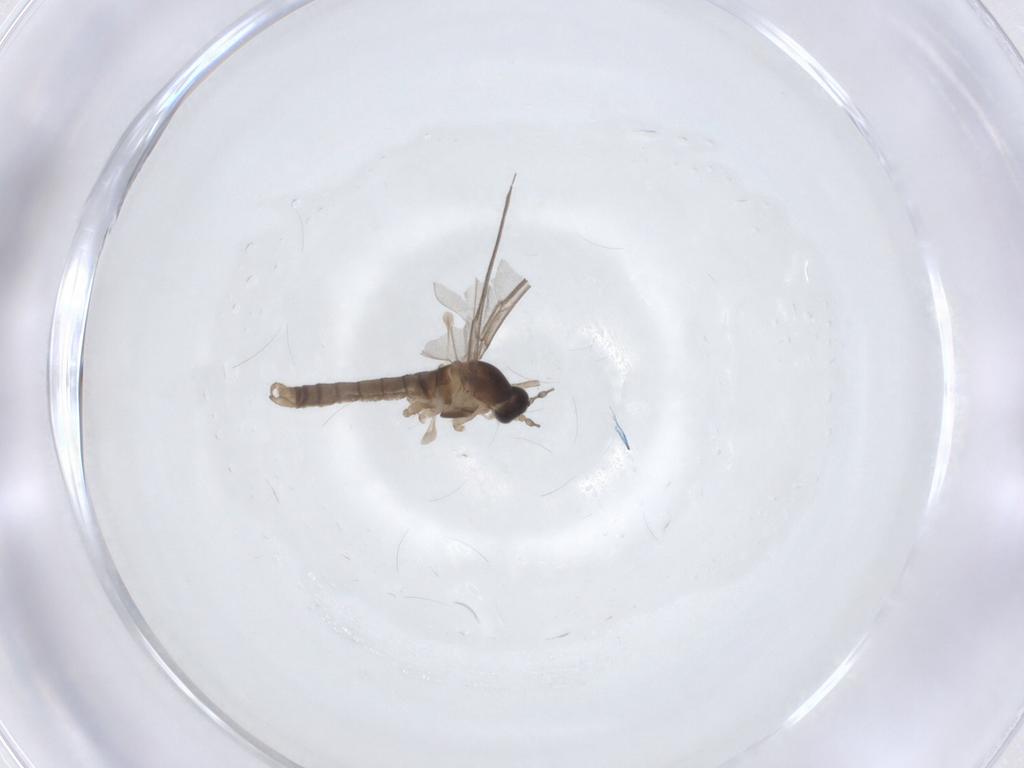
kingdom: Animalia
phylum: Arthropoda
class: Insecta
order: Diptera
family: Cecidomyiidae
